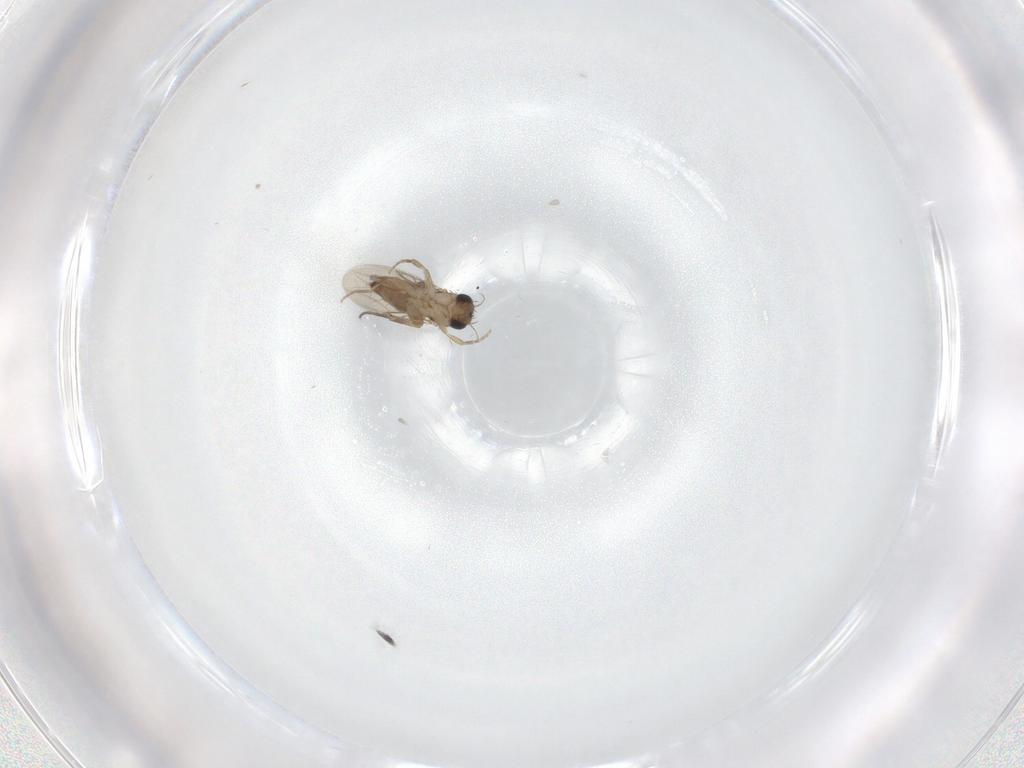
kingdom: Animalia
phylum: Arthropoda
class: Insecta
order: Diptera
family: Phoridae
